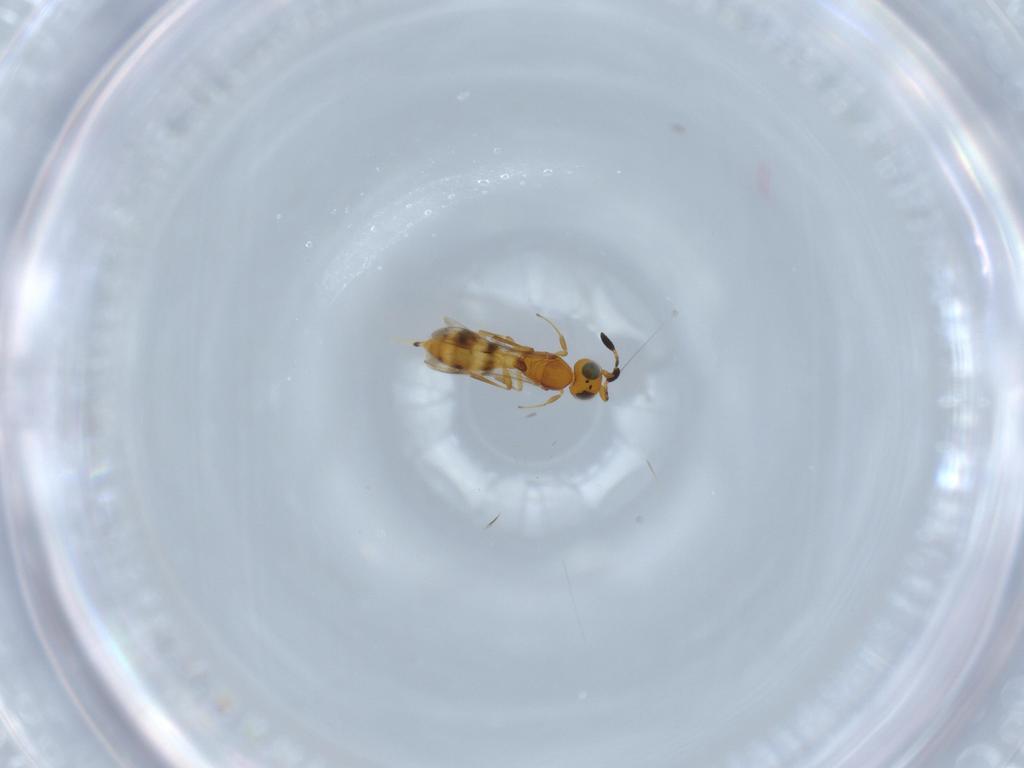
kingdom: Animalia
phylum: Arthropoda
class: Insecta
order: Hymenoptera
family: Scelionidae
